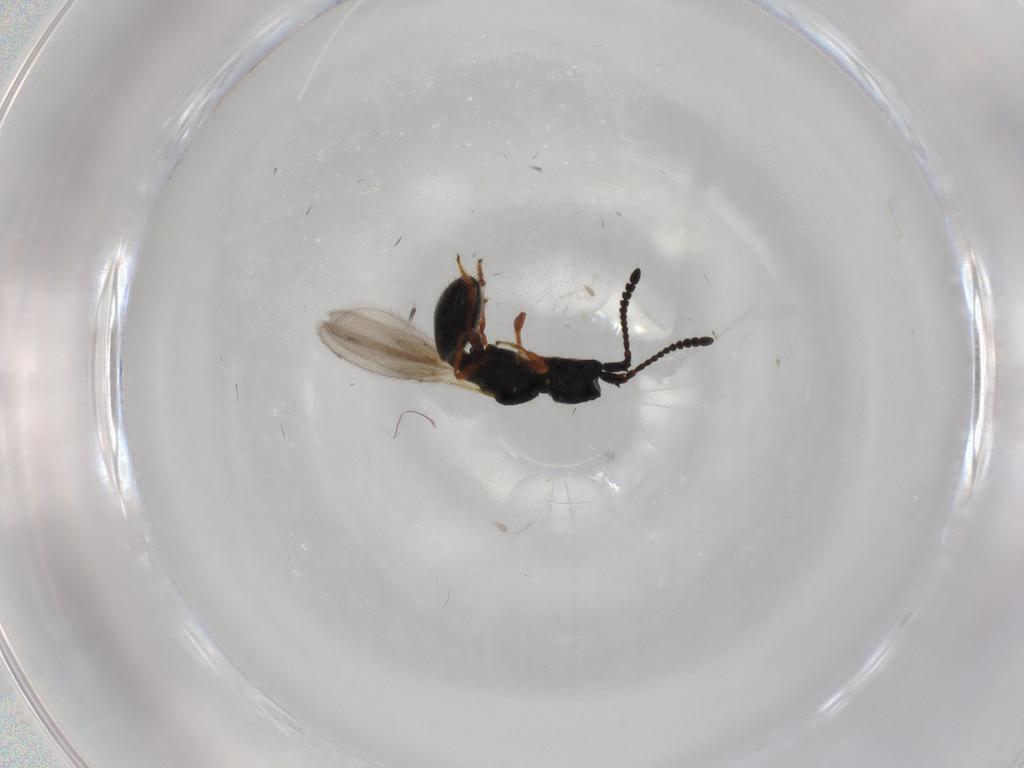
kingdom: Animalia
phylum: Arthropoda
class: Insecta
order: Hymenoptera
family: Diapriidae
